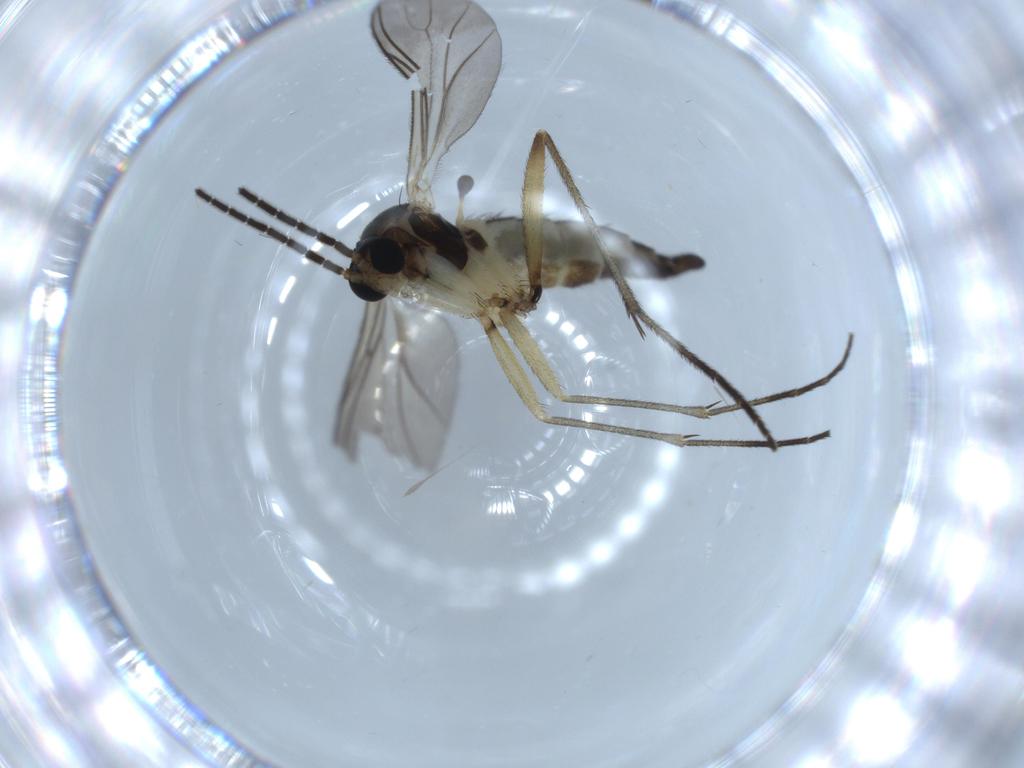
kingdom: Animalia
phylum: Arthropoda
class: Insecta
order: Diptera
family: Sciaridae
